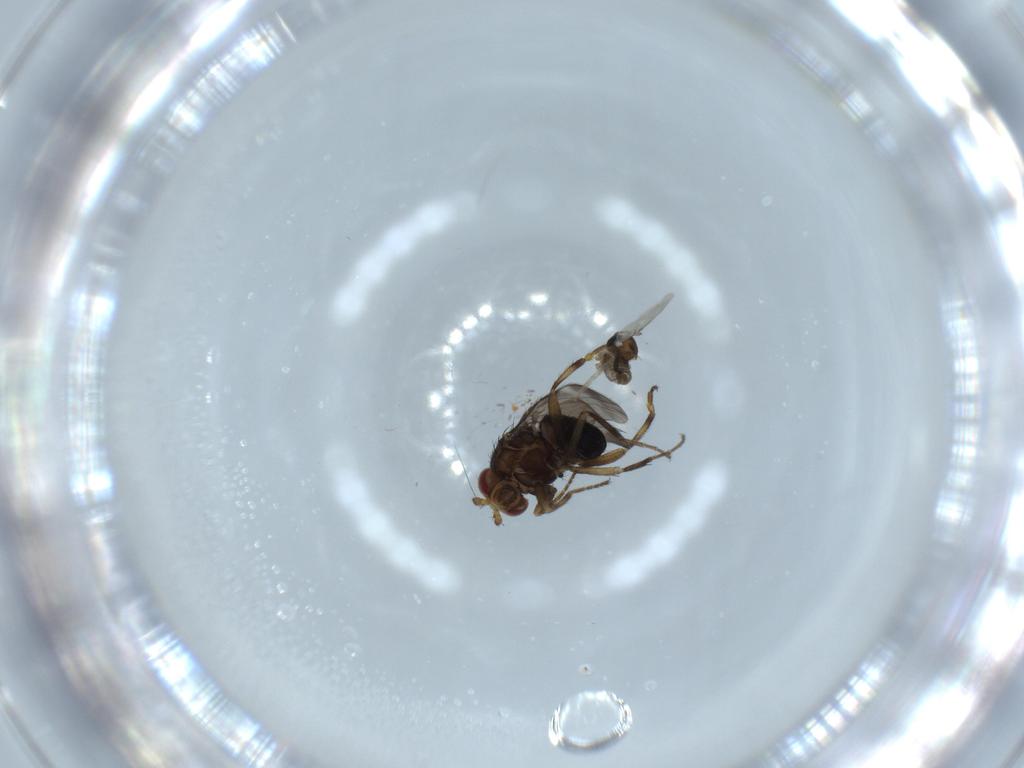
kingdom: Animalia
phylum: Arthropoda
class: Insecta
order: Diptera
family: Cecidomyiidae
